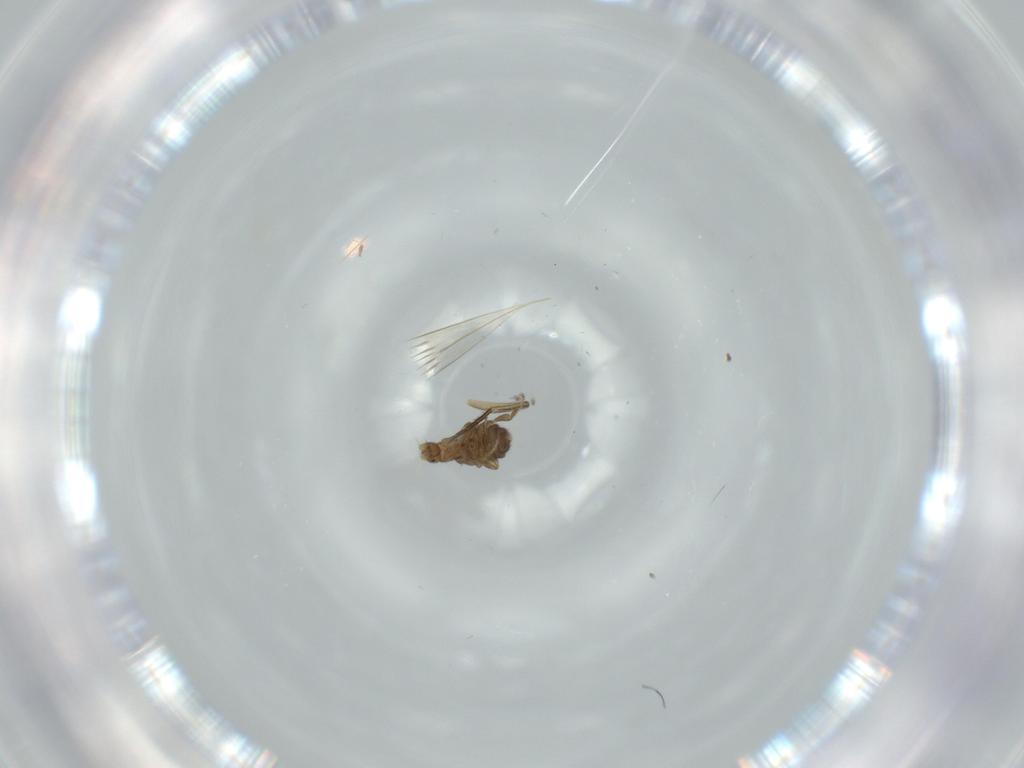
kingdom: Animalia
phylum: Arthropoda
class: Insecta
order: Diptera
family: Phoridae
